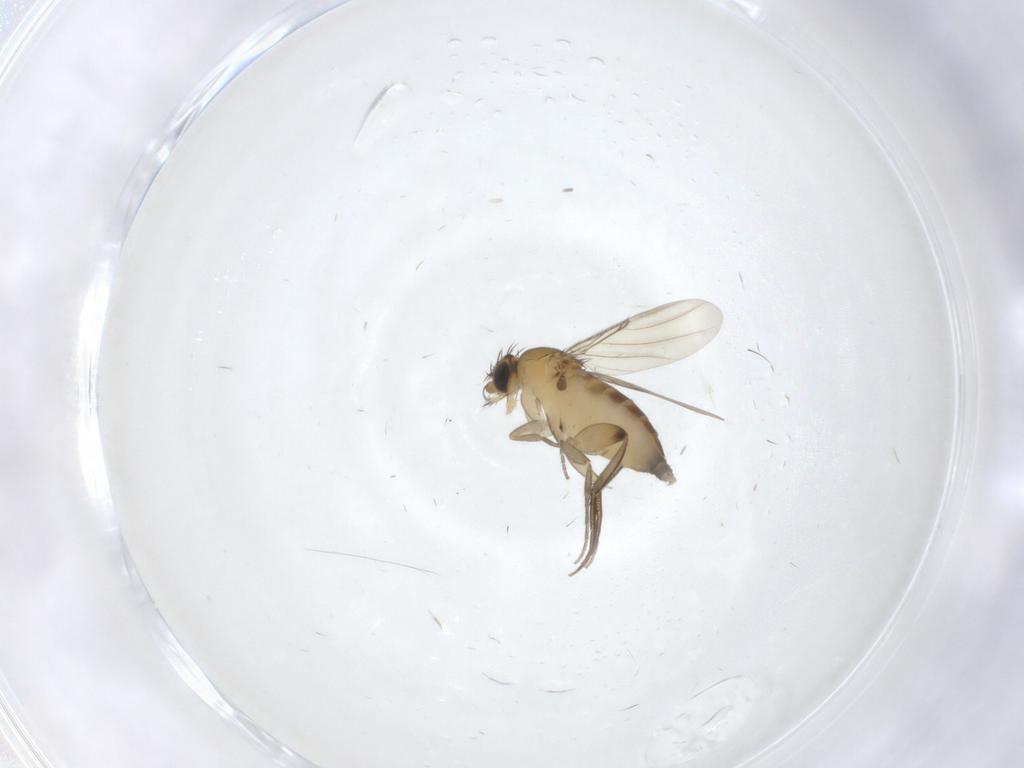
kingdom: Animalia
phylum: Arthropoda
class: Insecta
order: Diptera
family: Phoridae
